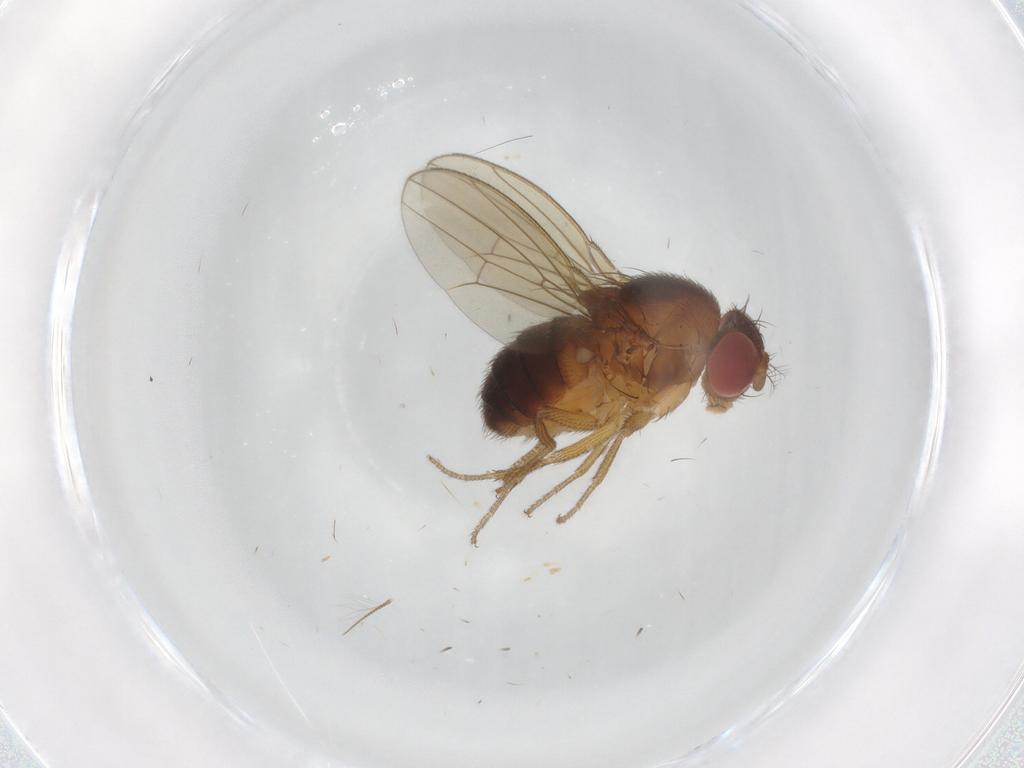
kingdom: Animalia
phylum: Arthropoda
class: Insecta
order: Diptera
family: Drosophilidae
